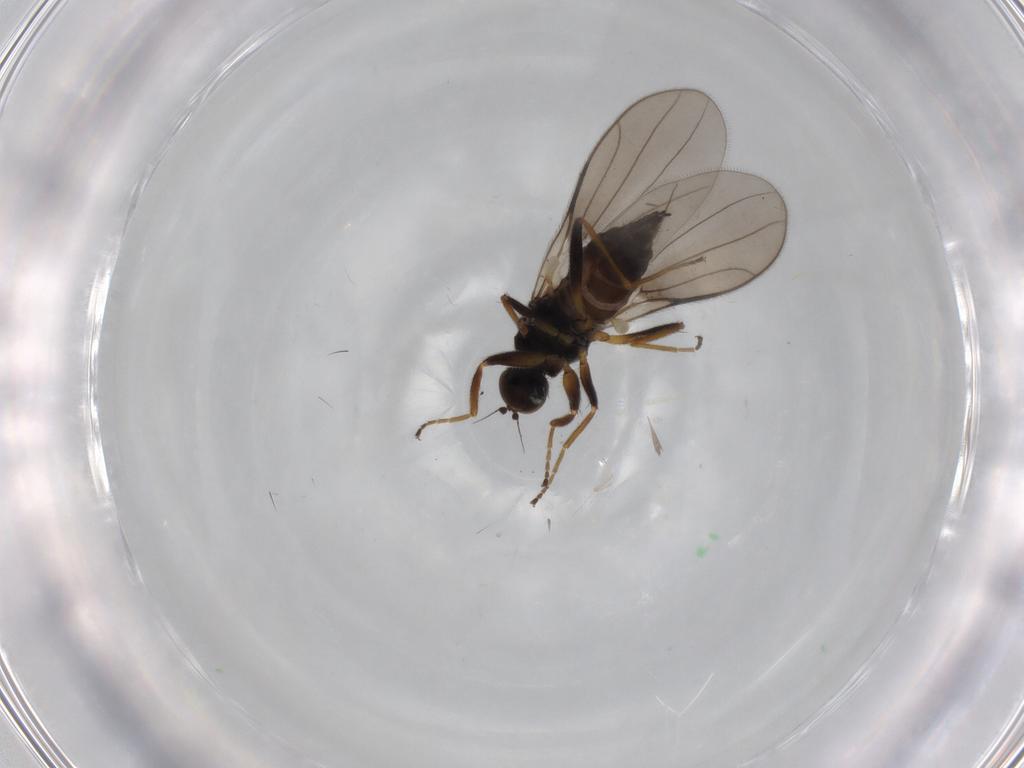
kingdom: Animalia
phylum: Arthropoda
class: Insecta
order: Diptera
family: Hybotidae
